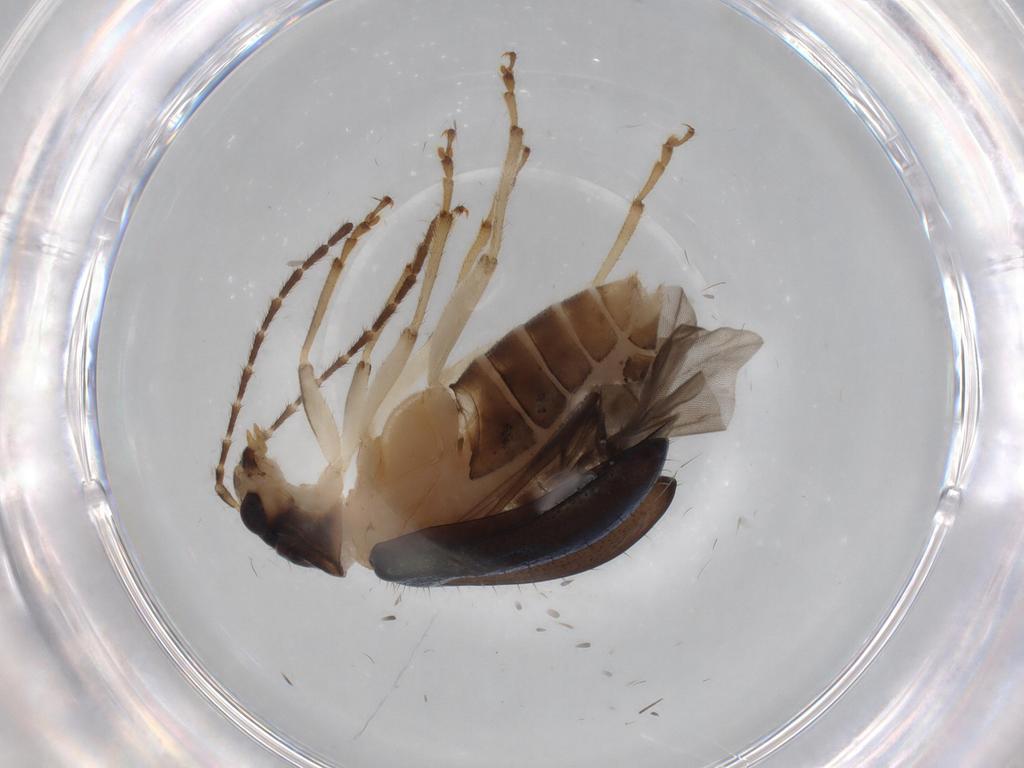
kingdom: Animalia
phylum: Arthropoda
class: Insecta
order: Coleoptera
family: Chrysomelidae
